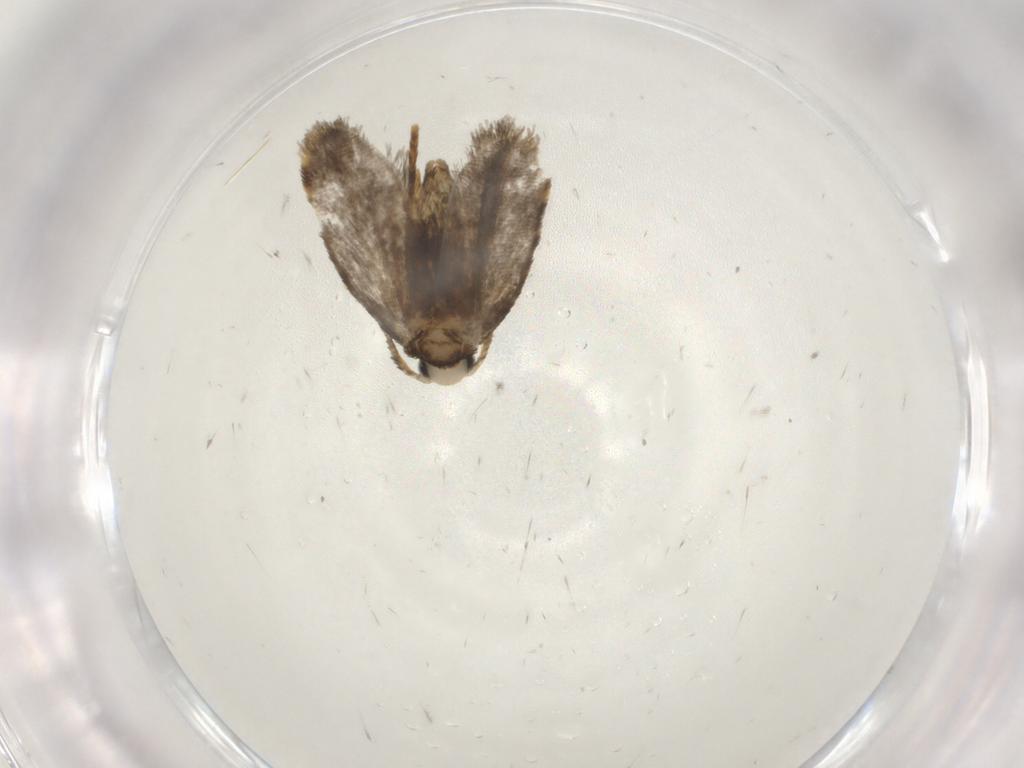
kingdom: Animalia
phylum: Arthropoda
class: Insecta
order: Lepidoptera
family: Psychidae
